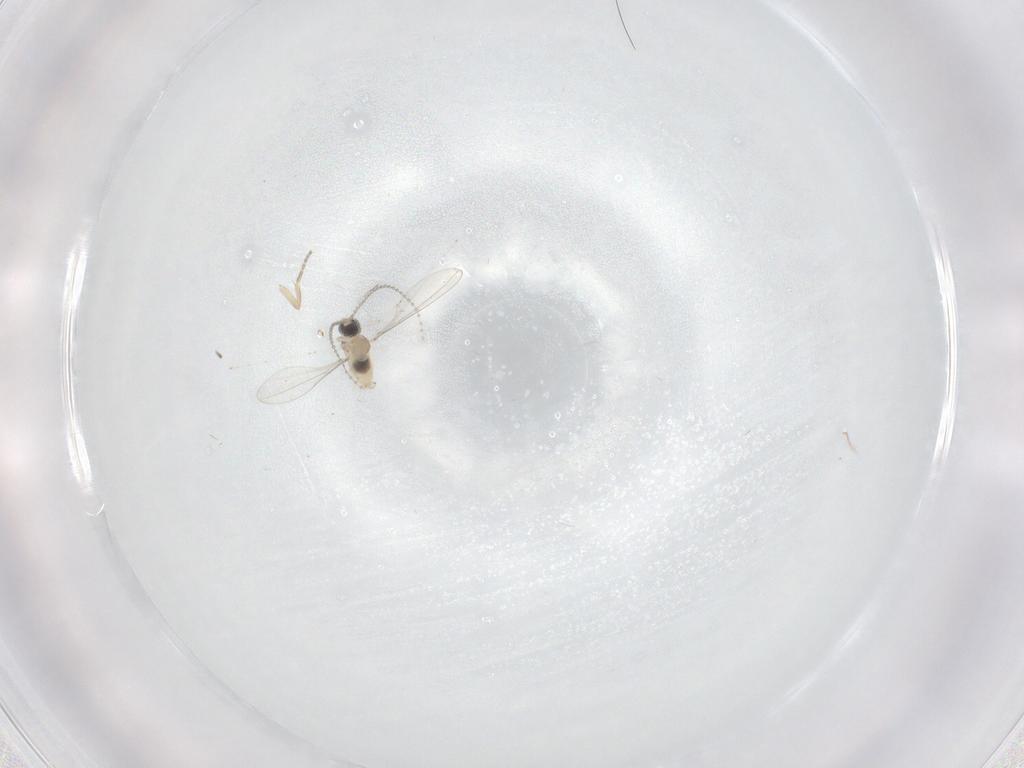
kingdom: Animalia
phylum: Arthropoda
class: Insecta
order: Diptera
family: Cecidomyiidae
